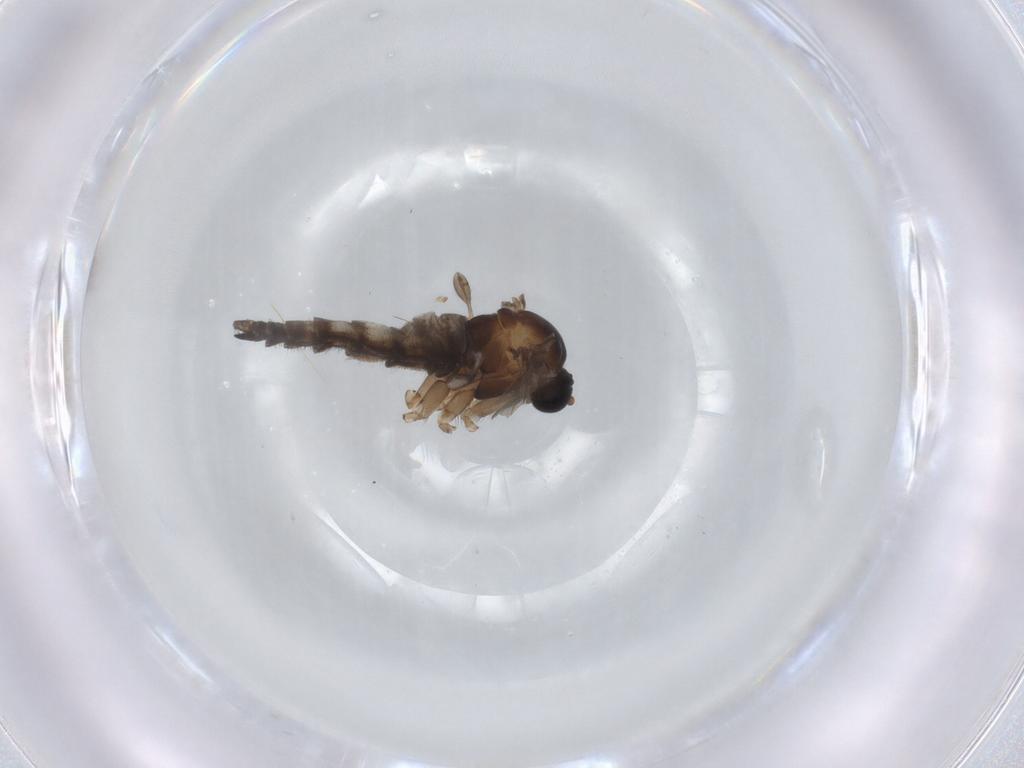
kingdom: Animalia
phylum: Arthropoda
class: Insecta
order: Diptera
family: Sciaridae
